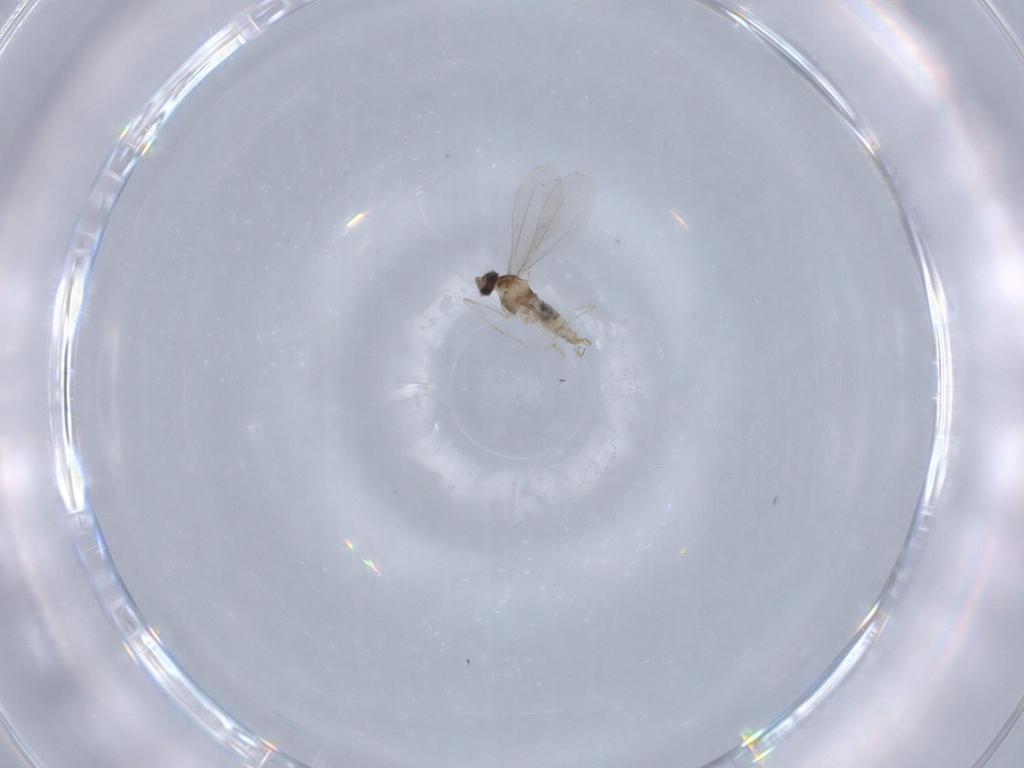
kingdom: Animalia
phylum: Arthropoda
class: Insecta
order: Diptera
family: Cecidomyiidae
